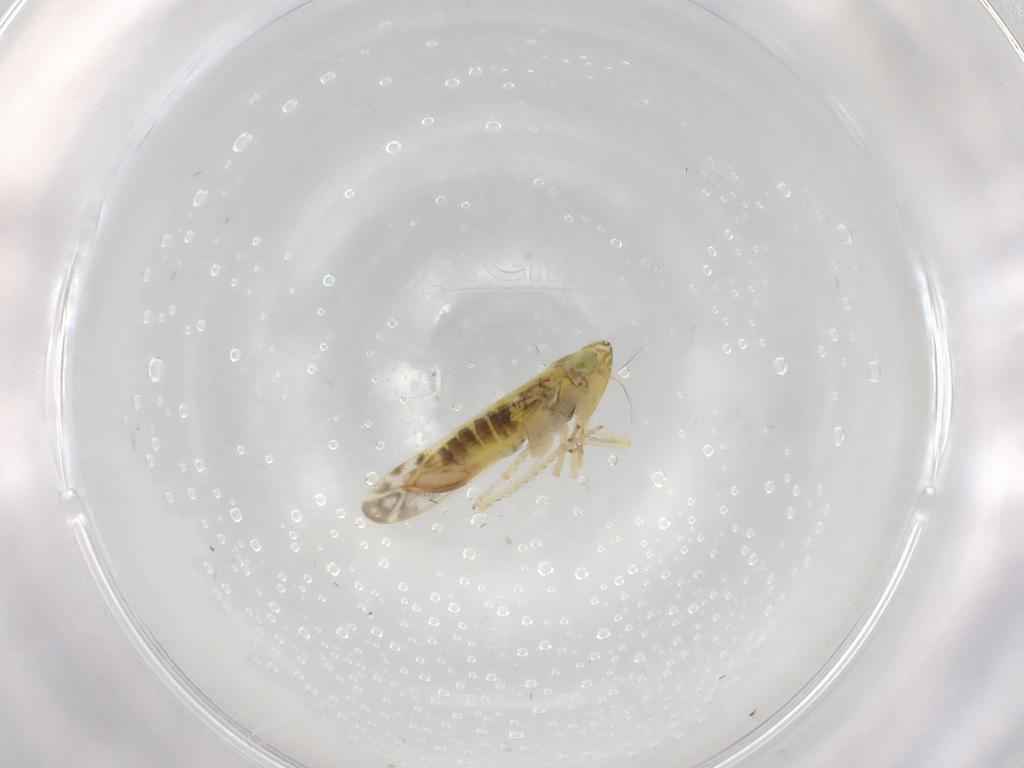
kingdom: Animalia
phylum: Arthropoda
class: Insecta
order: Hemiptera
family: Cicadellidae
